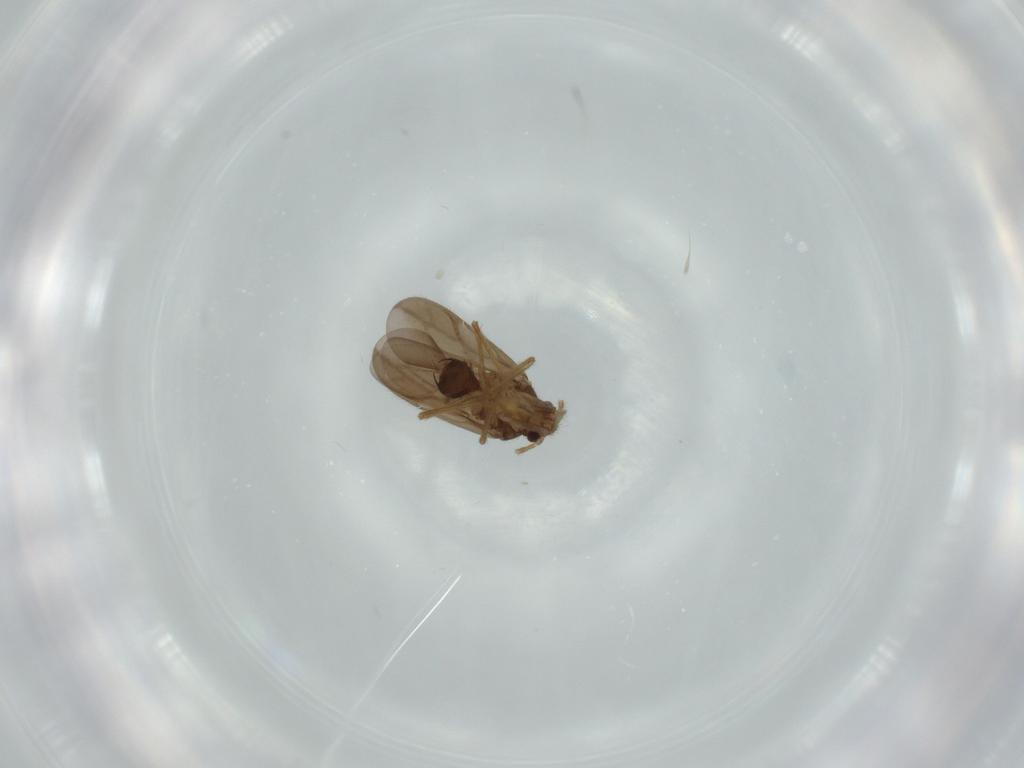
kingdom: Animalia
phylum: Arthropoda
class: Insecta
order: Hemiptera
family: Ceratocombidae
